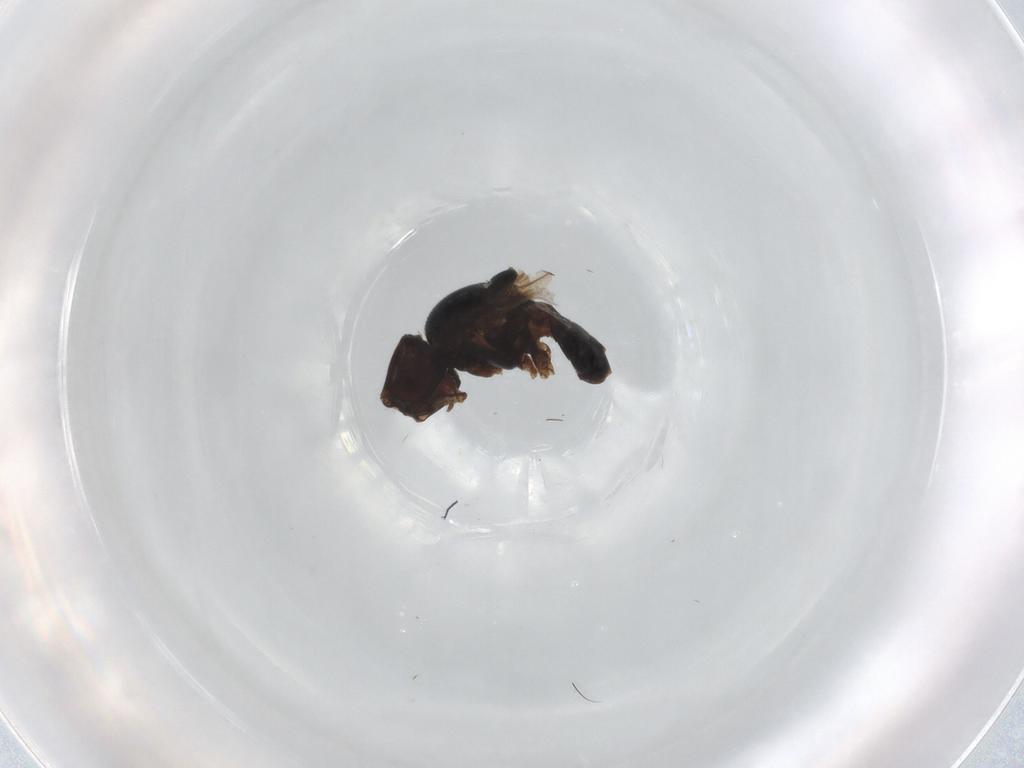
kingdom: Animalia
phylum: Arthropoda
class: Insecta
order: Diptera
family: Chloropidae
